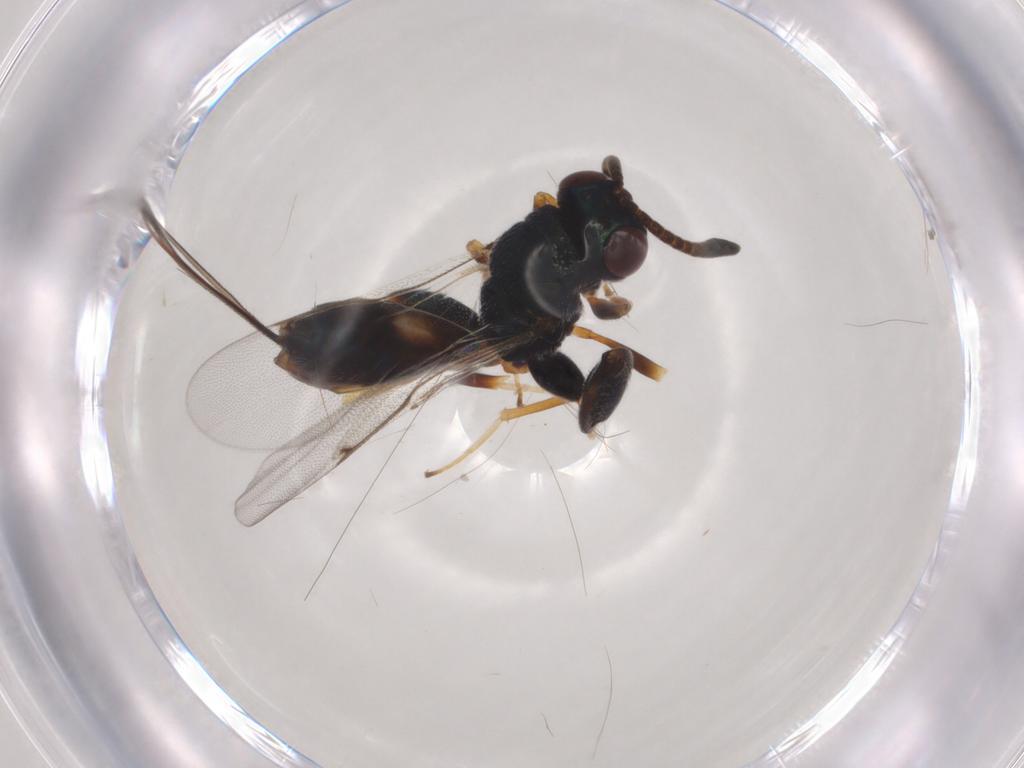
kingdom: Animalia
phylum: Arthropoda
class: Insecta
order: Hymenoptera
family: Torymidae
